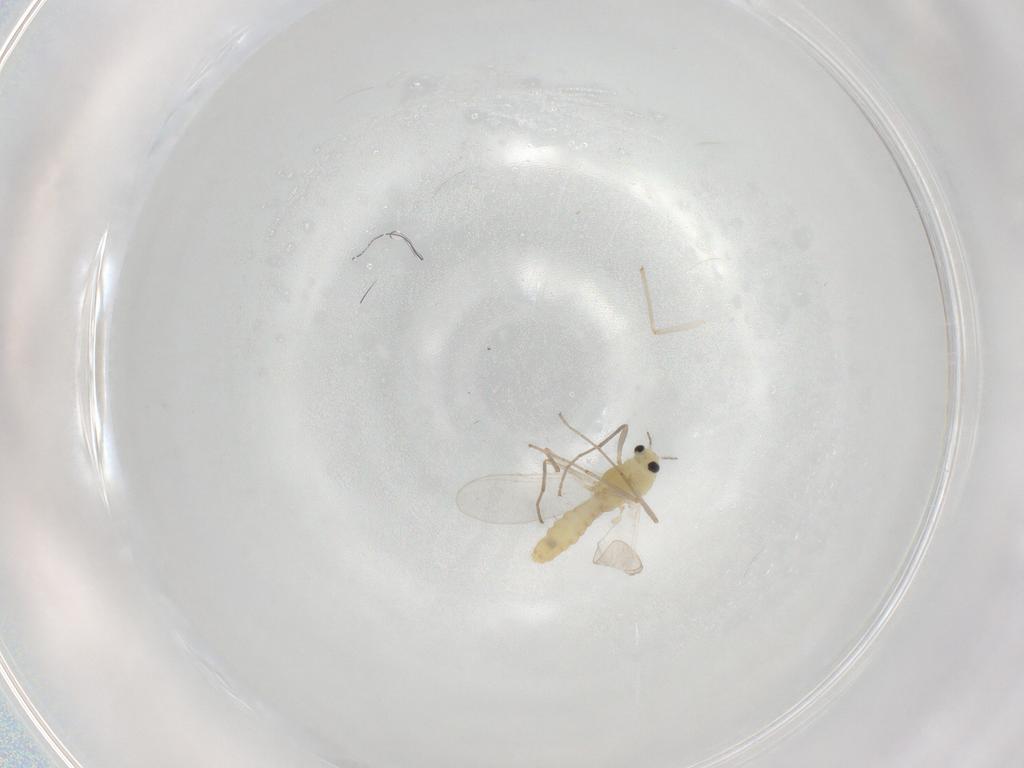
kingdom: Animalia
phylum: Arthropoda
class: Insecta
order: Diptera
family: Chironomidae
